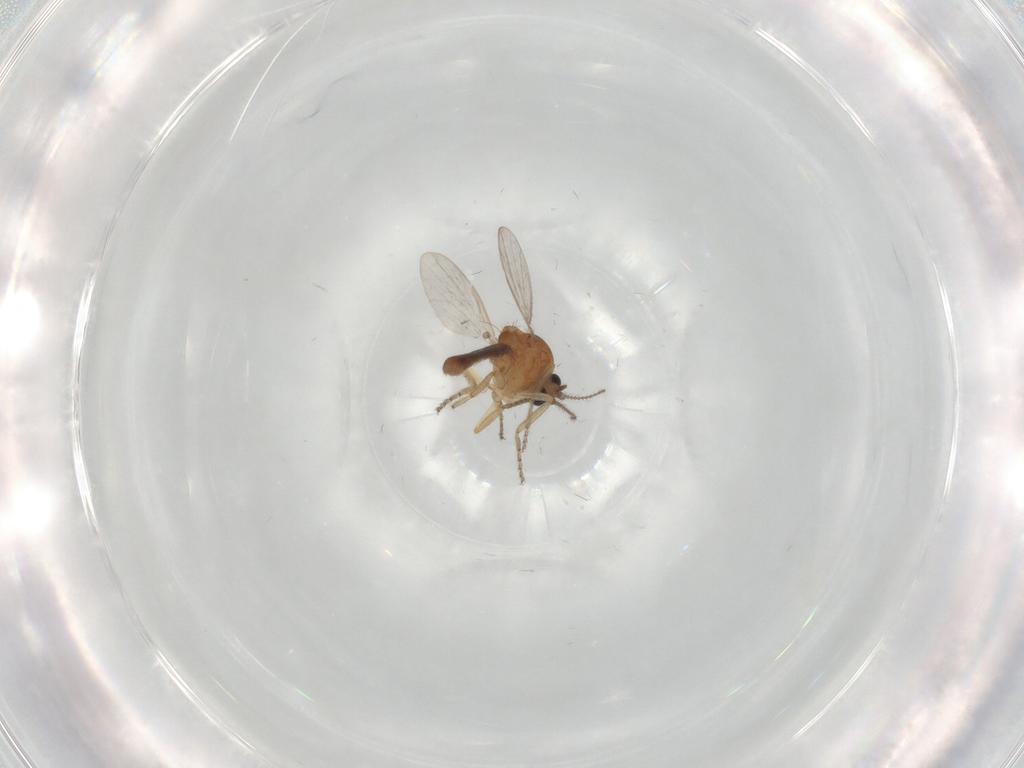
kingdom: Animalia
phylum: Arthropoda
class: Insecta
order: Diptera
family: Ceratopogonidae
